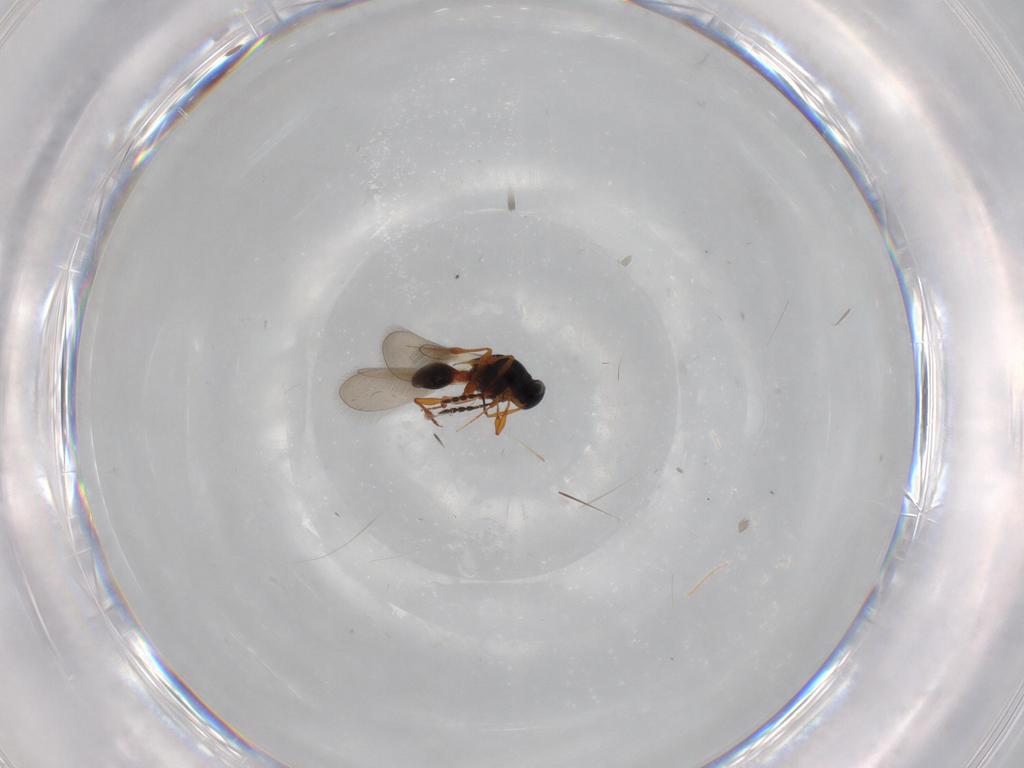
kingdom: Animalia
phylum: Arthropoda
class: Insecta
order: Hymenoptera
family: Platygastridae
